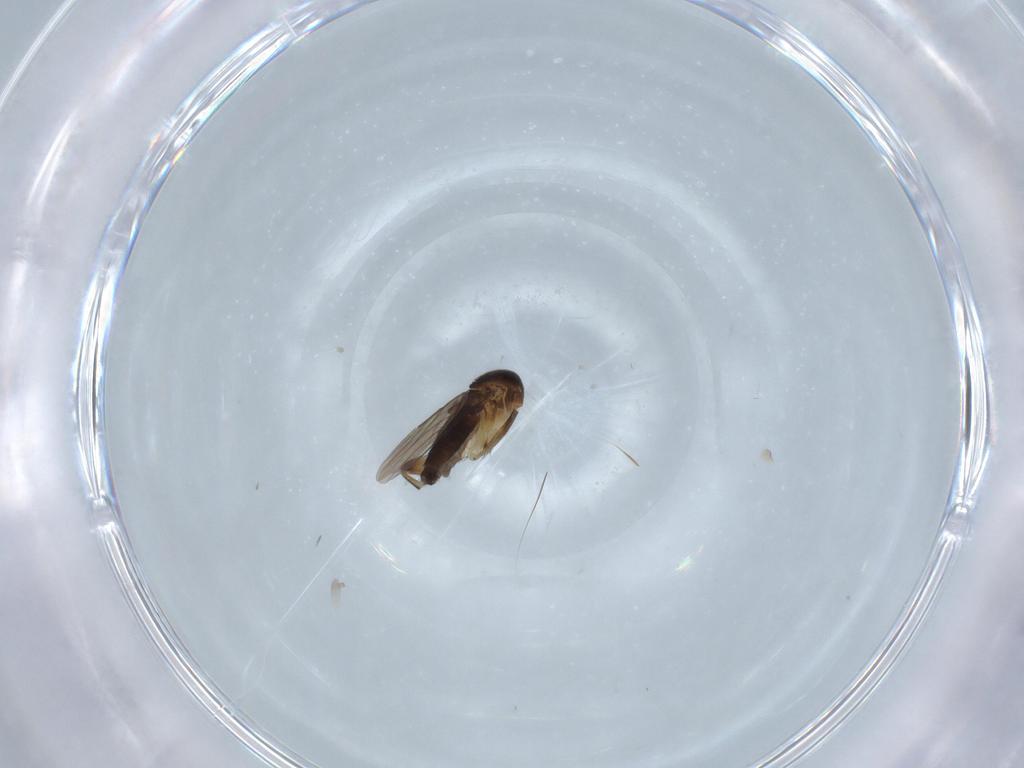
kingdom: Animalia
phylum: Arthropoda
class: Insecta
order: Diptera
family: Phoridae
